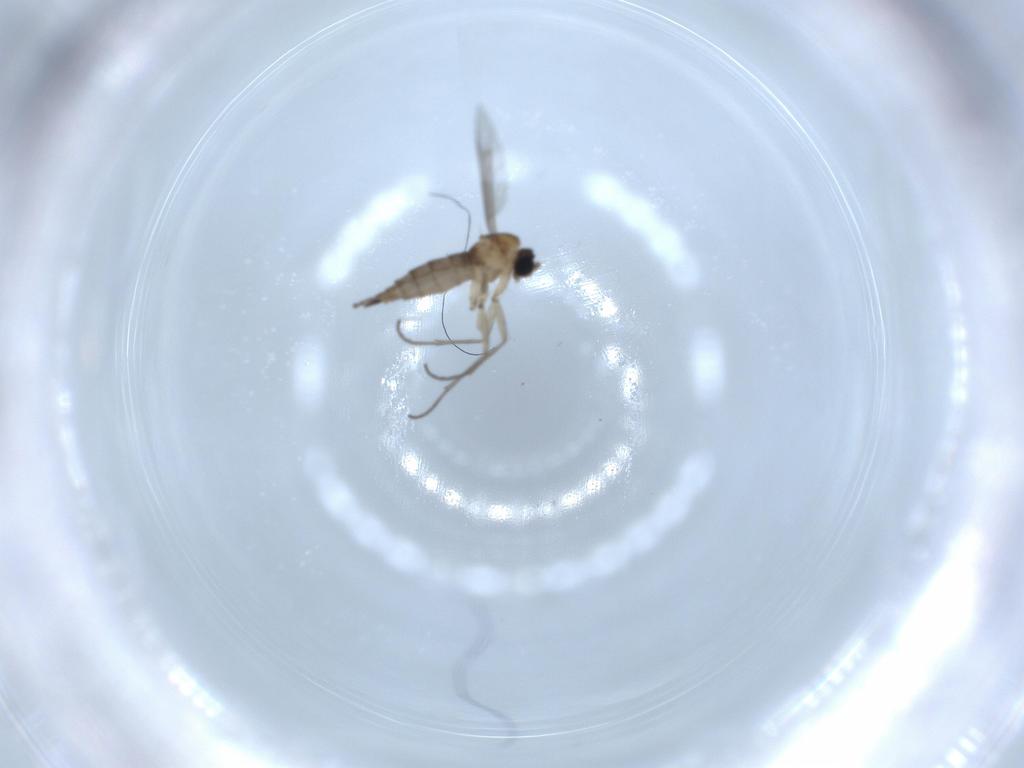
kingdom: Animalia
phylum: Arthropoda
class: Insecta
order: Diptera
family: Sciaridae
